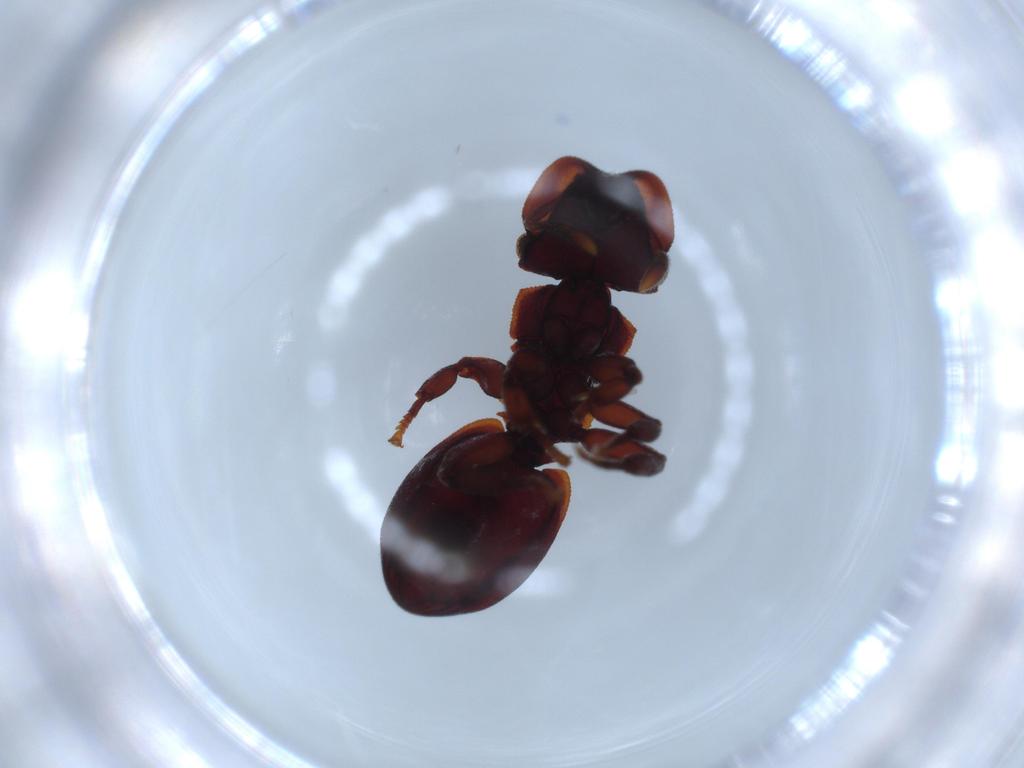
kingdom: Animalia
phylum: Arthropoda
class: Insecta
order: Hymenoptera
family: Formicidae
